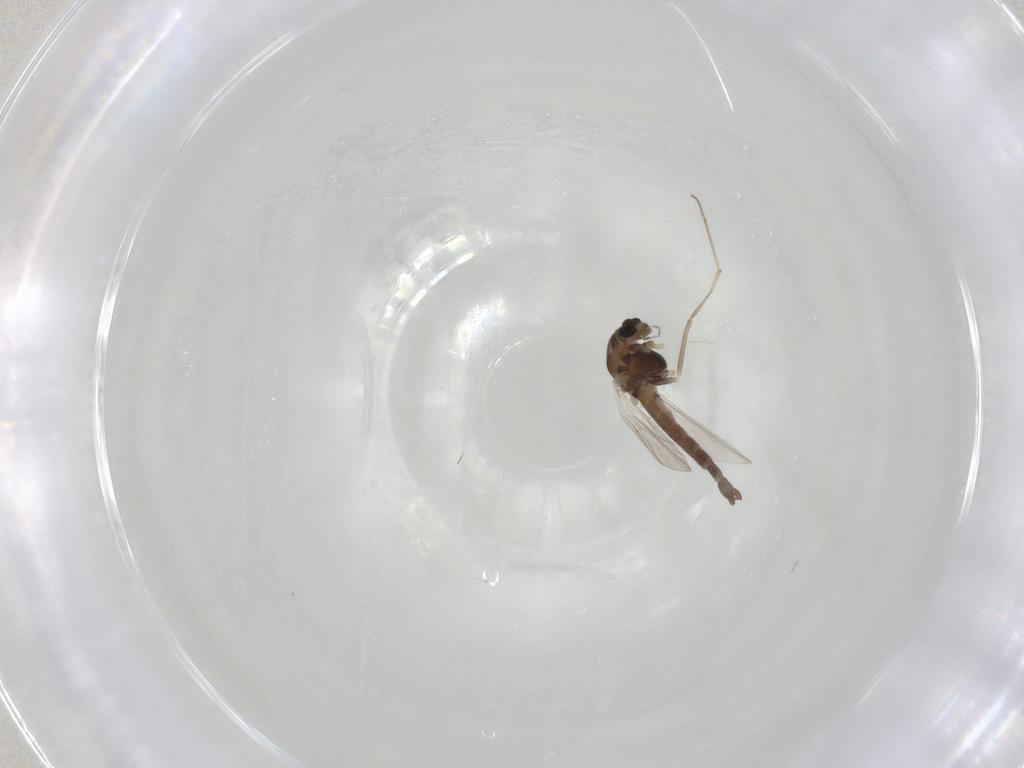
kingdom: Animalia
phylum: Arthropoda
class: Insecta
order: Diptera
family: Chironomidae
